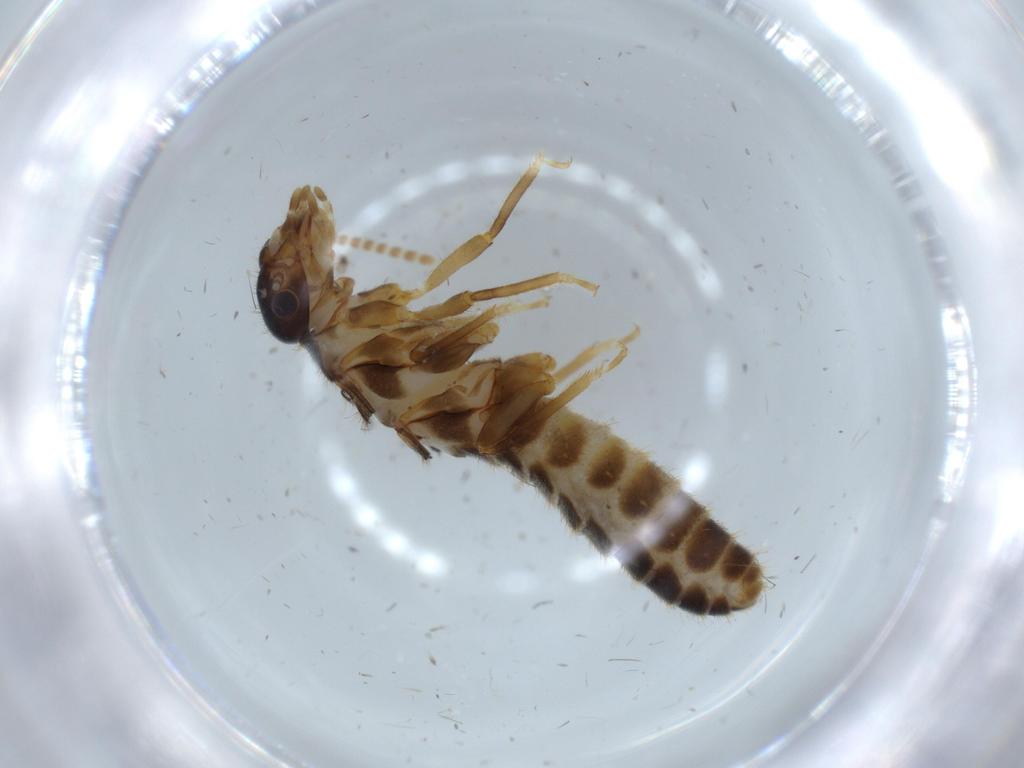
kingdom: Animalia
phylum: Arthropoda
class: Insecta
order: Blattodea
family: Termitidae
